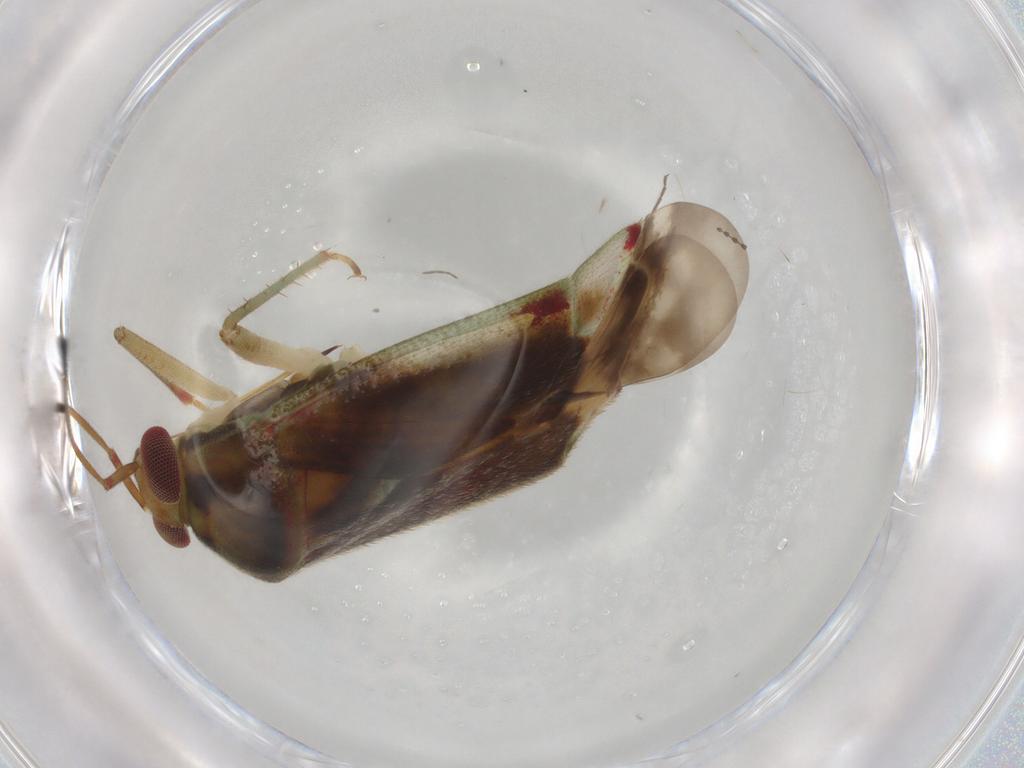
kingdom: Animalia
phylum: Arthropoda
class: Insecta
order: Hemiptera
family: Miridae
